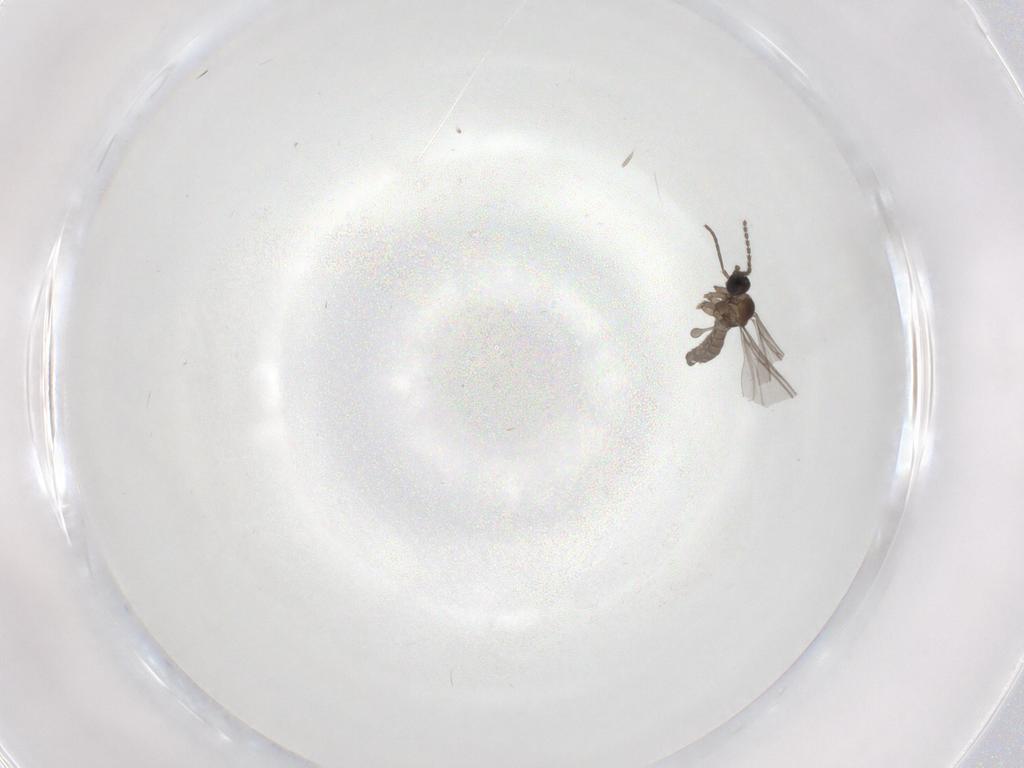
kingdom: Animalia
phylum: Arthropoda
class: Insecta
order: Diptera
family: Sciaridae
